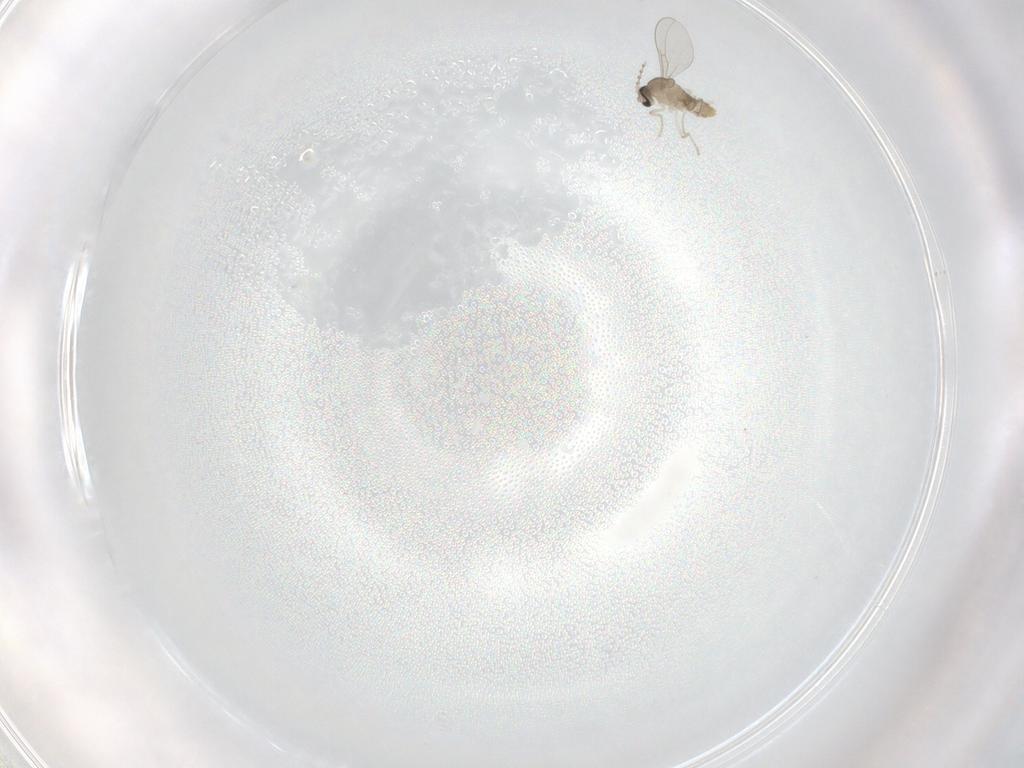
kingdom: Animalia
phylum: Arthropoda
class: Insecta
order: Diptera
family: Cecidomyiidae
